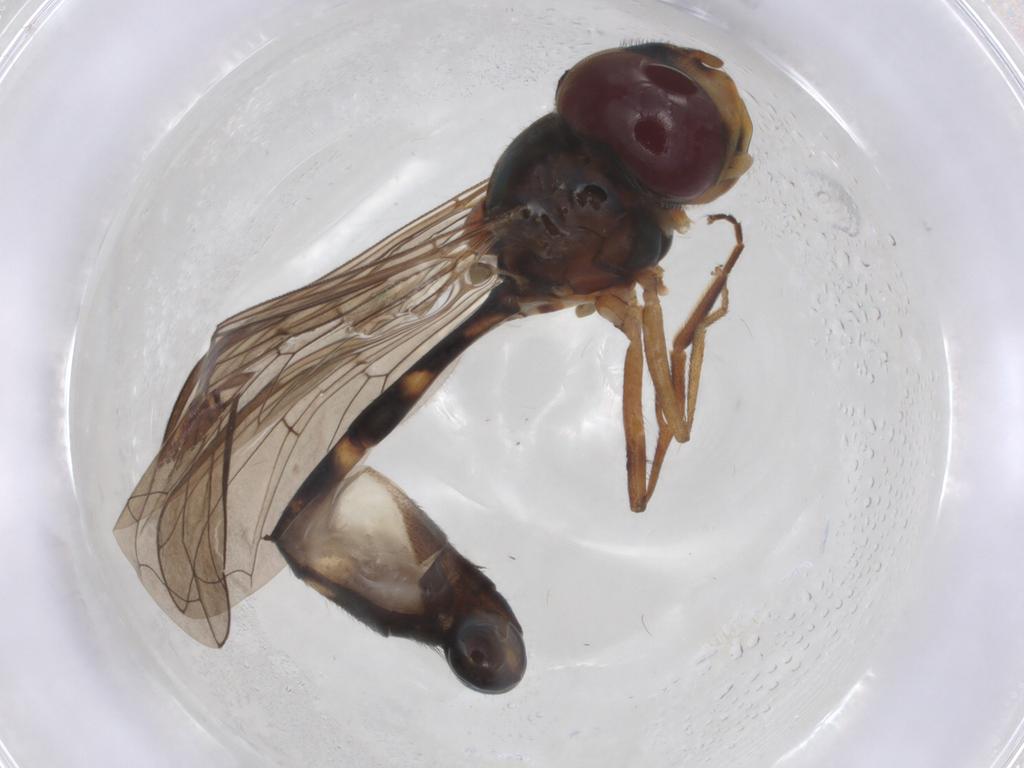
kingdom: Animalia
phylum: Arthropoda
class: Insecta
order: Diptera
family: Syrphidae
